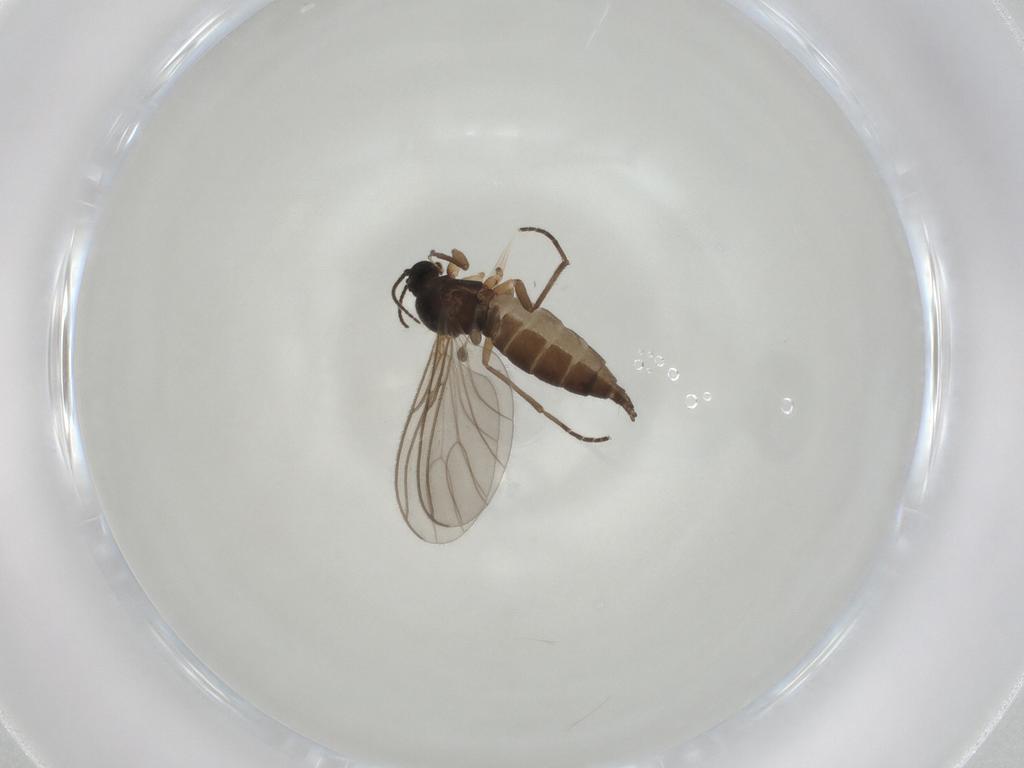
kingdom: Animalia
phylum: Arthropoda
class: Insecta
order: Diptera
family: Sciaridae
